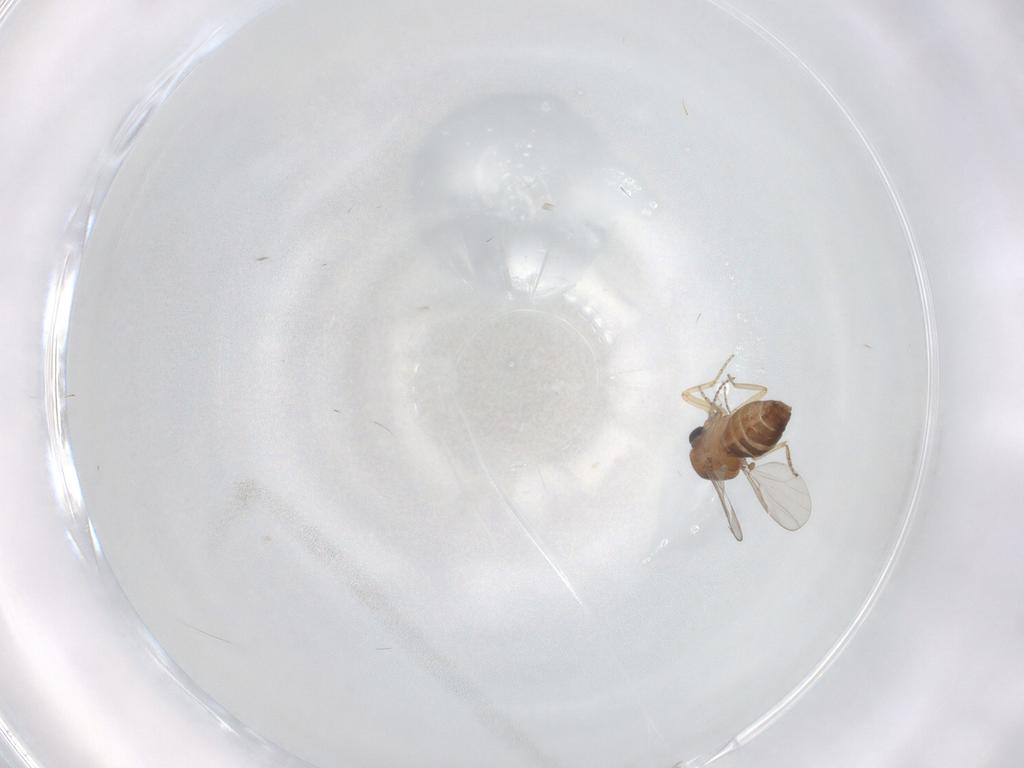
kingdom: Animalia
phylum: Arthropoda
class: Insecta
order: Diptera
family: Ceratopogonidae
